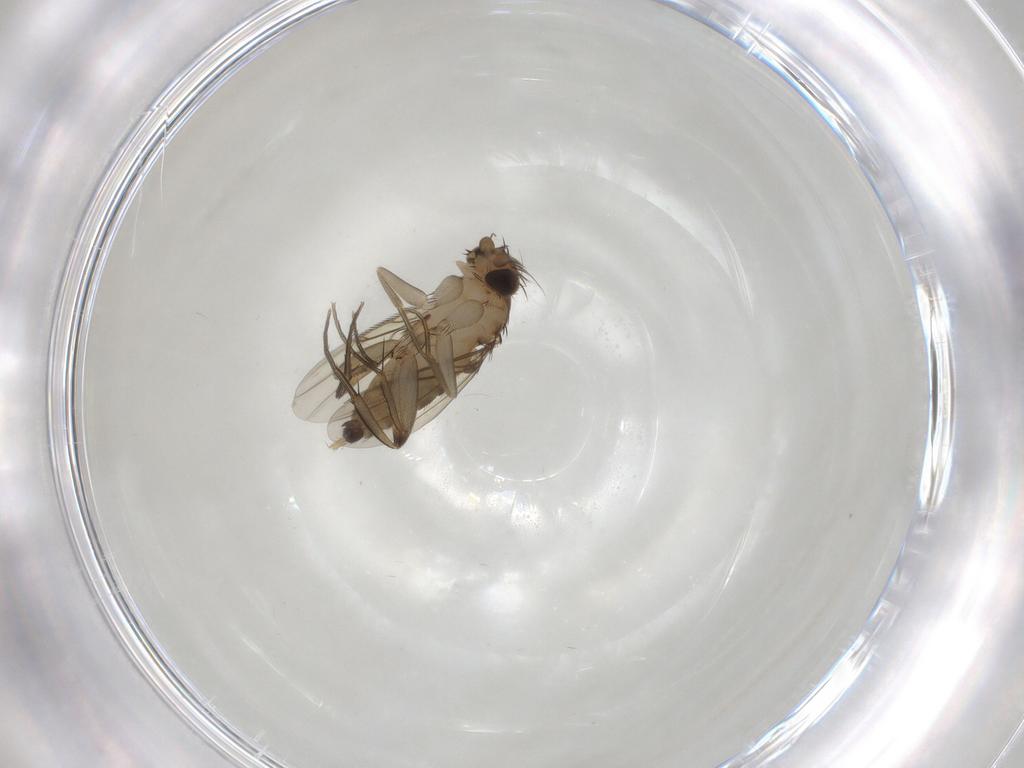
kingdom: Animalia
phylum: Arthropoda
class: Insecta
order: Diptera
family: Phoridae
